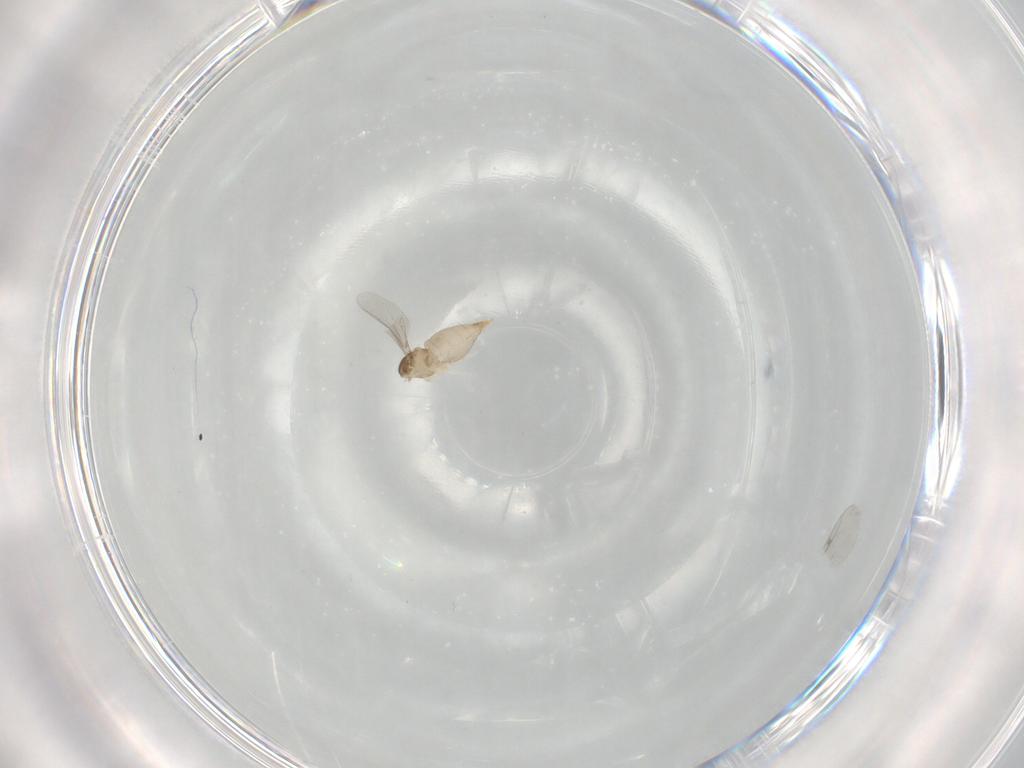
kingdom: Animalia
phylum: Arthropoda
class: Insecta
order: Diptera
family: Cecidomyiidae
